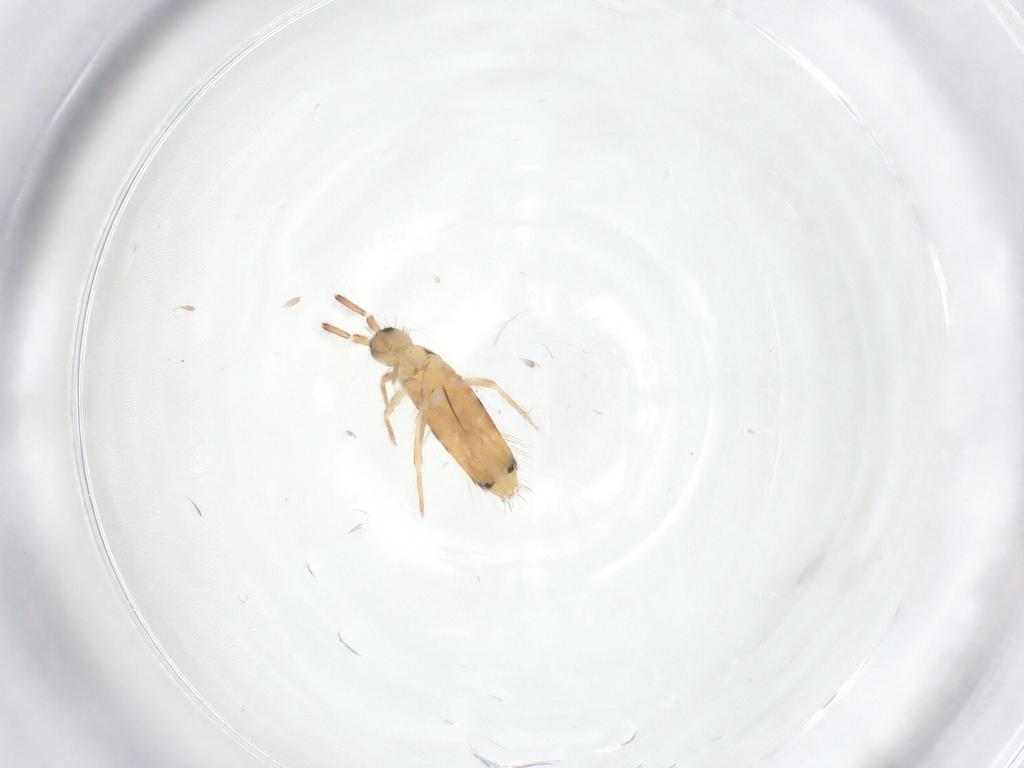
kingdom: Animalia
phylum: Arthropoda
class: Collembola
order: Entomobryomorpha
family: Entomobryidae
